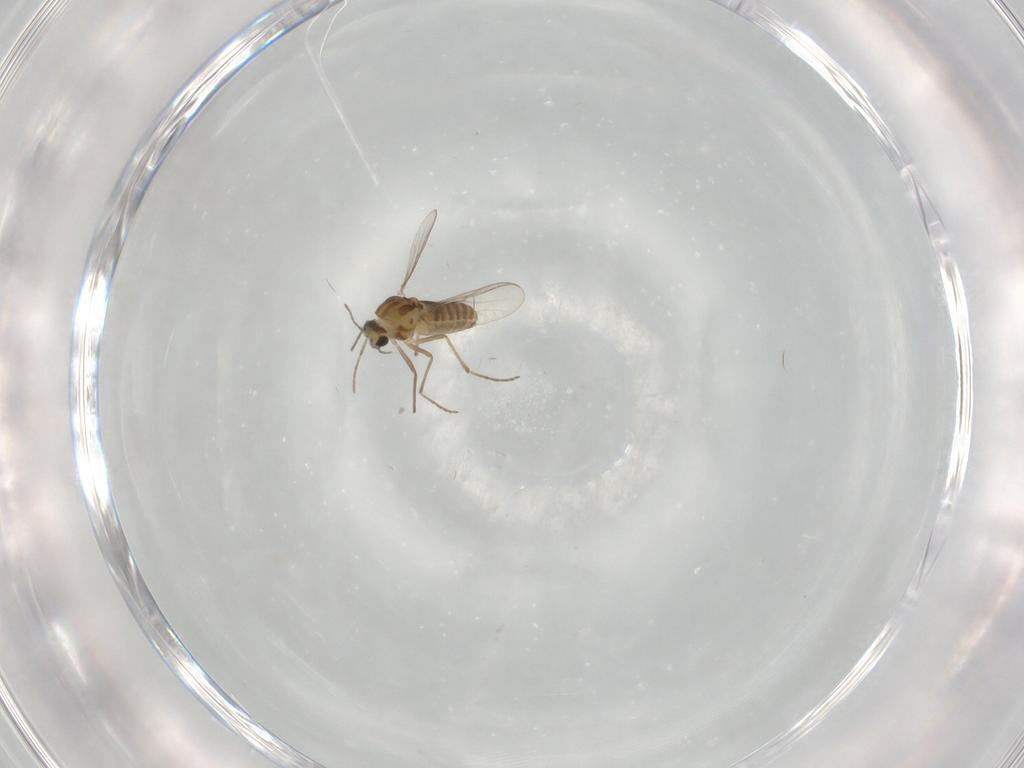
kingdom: Animalia
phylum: Arthropoda
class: Insecta
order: Diptera
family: Chironomidae
